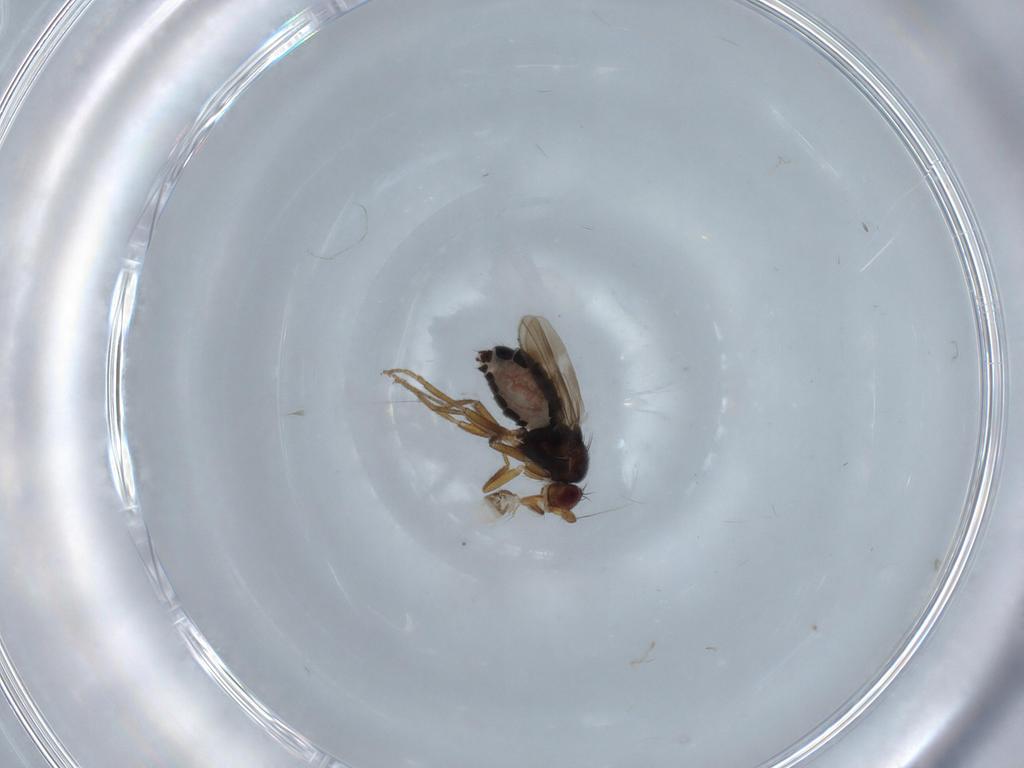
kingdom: Animalia
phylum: Arthropoda
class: Insecta
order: Diptera
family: Sphaeroceridae
